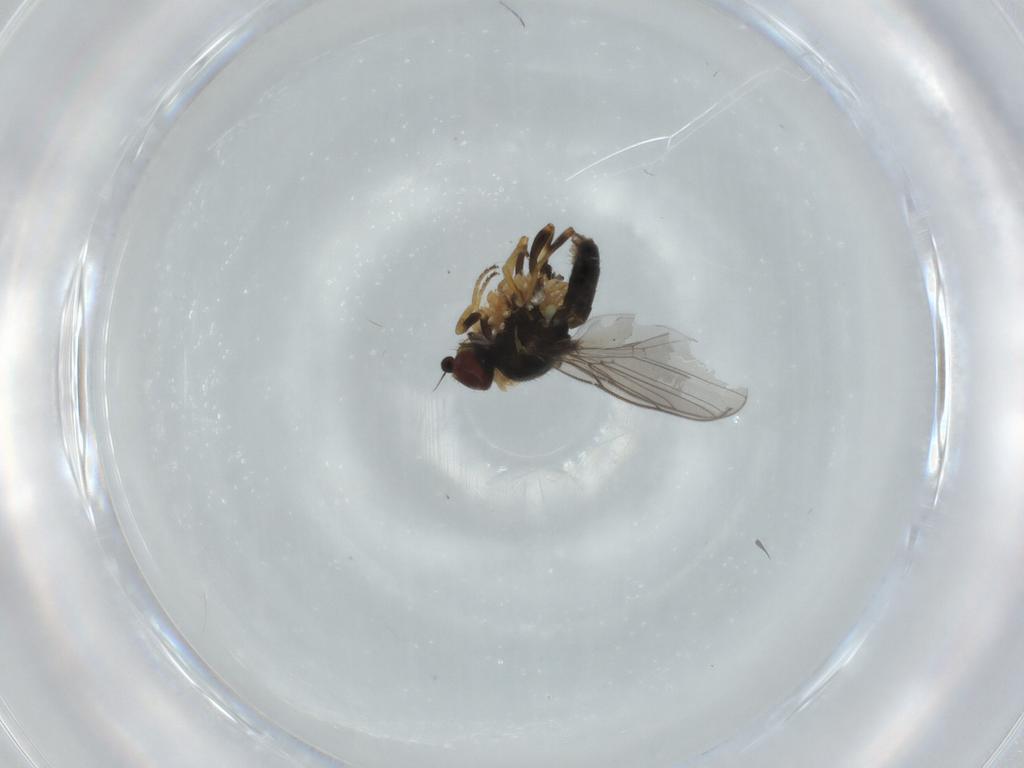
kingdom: Animalia
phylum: Arthropoda
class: Insecta
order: Diptera
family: Chloropidae
